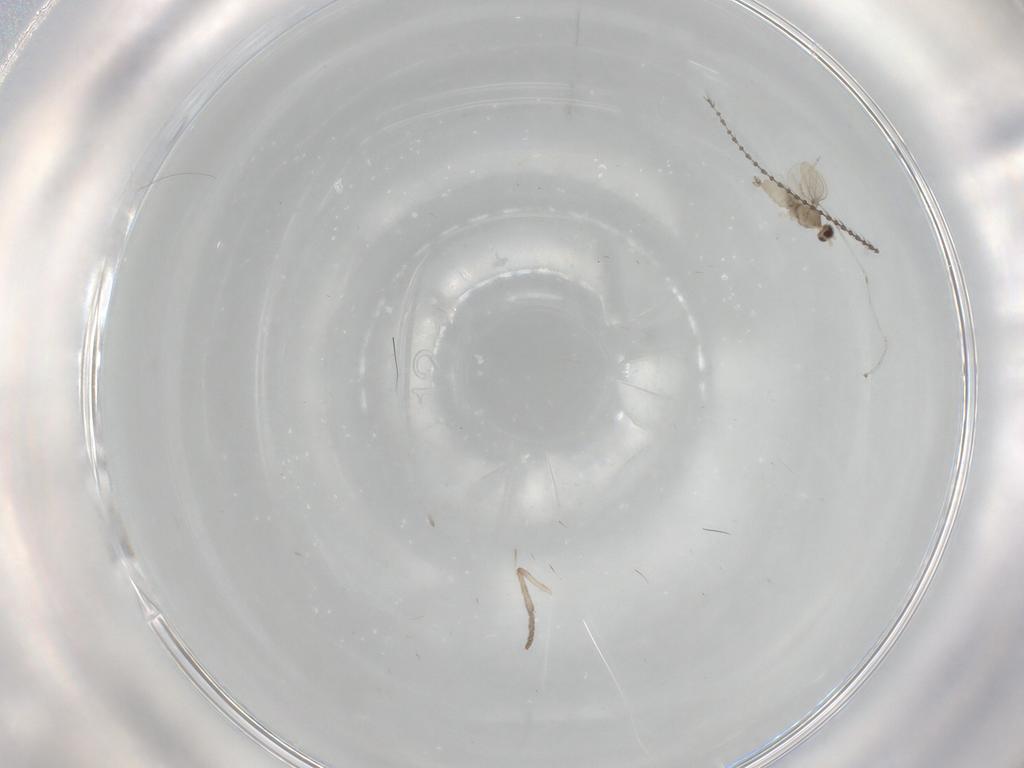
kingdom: Animalia
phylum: Arthropoda
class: Insecta
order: Diptera
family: Cecidomyiidae
